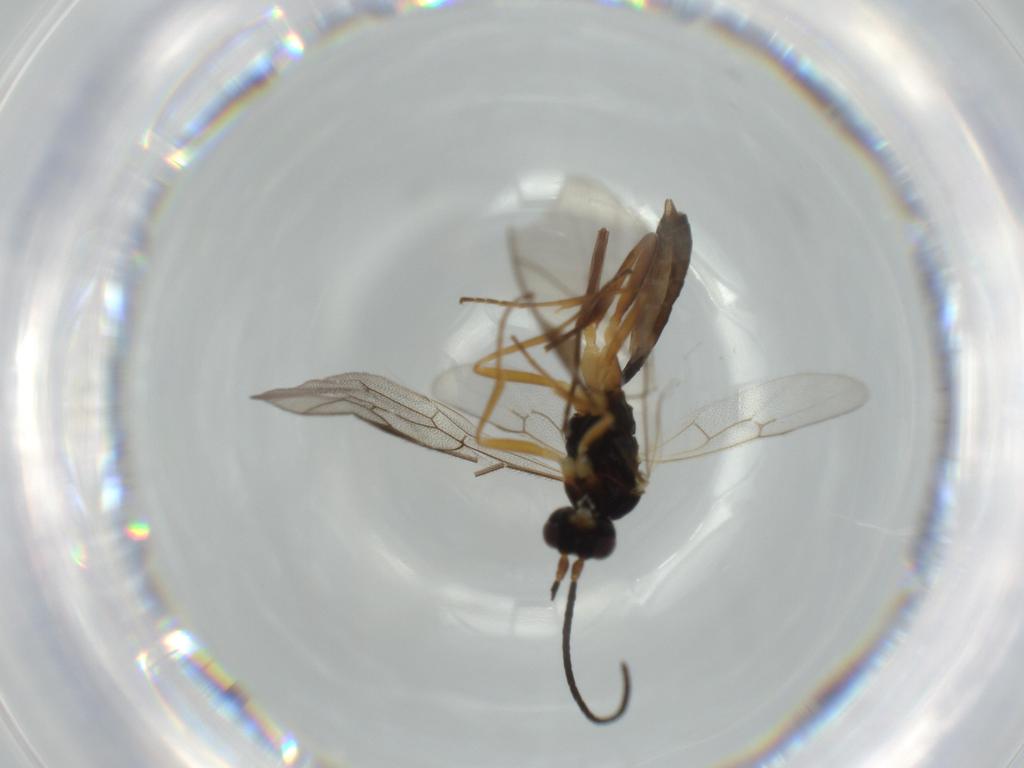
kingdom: Animalia
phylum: Arthropoda
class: Insecta
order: Hymenoptera
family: Ichneumonidae
